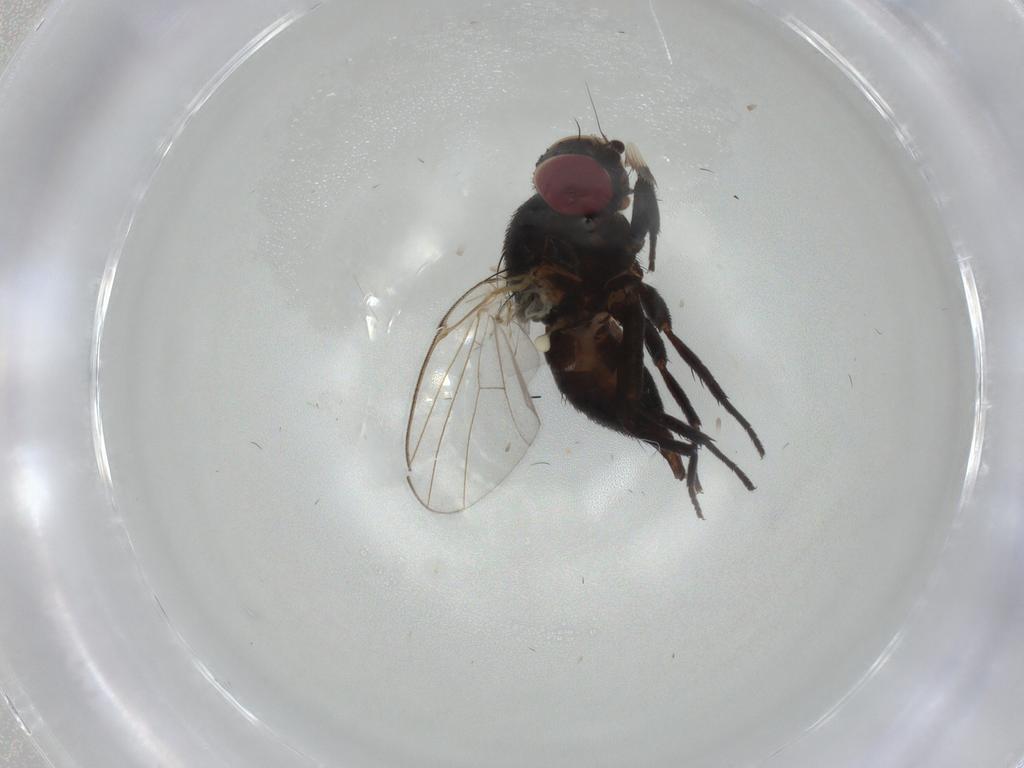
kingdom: Animalia
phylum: Arthropoda
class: Insecta
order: Diptera
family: Agromyzidae
